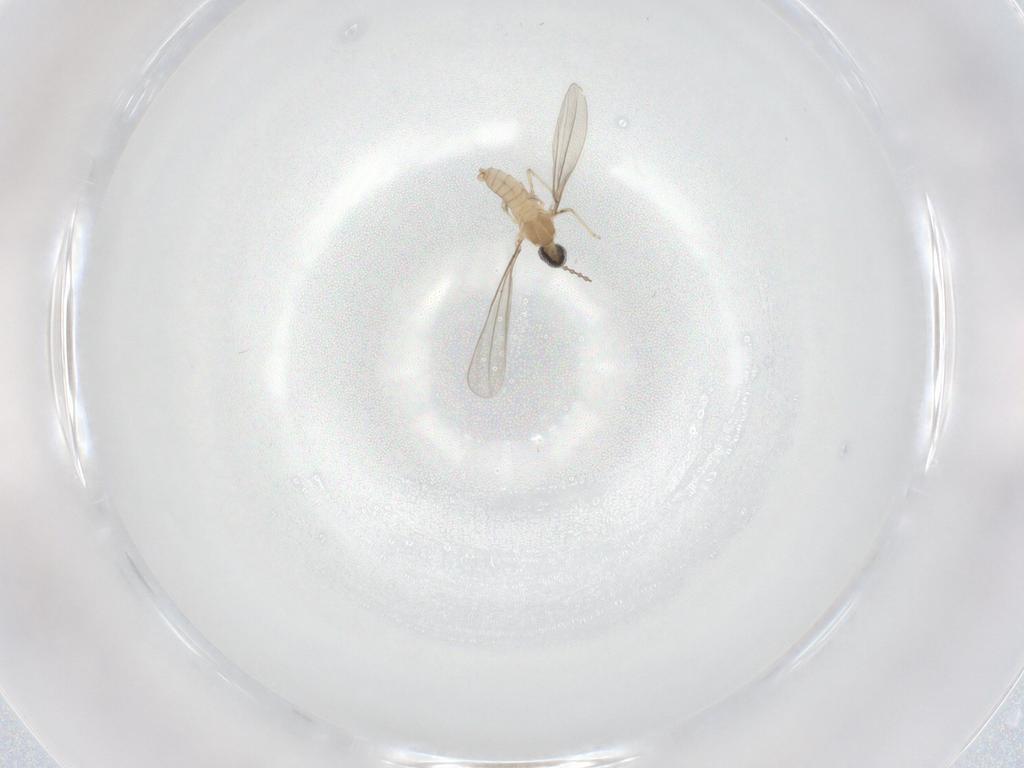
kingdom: Animalia
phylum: Arthropoda
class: Insecta
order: Diptera
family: Cecidomyiidae
